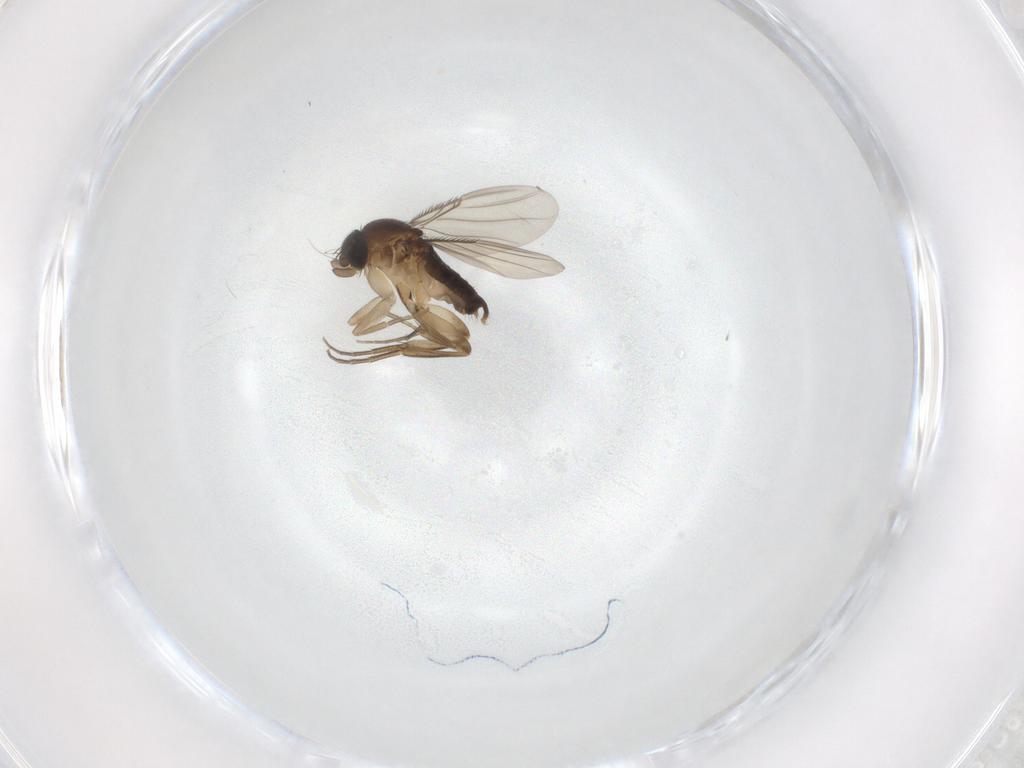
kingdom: Animalia
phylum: Arthropoda
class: Insecta
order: Diptera
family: Phoridae
